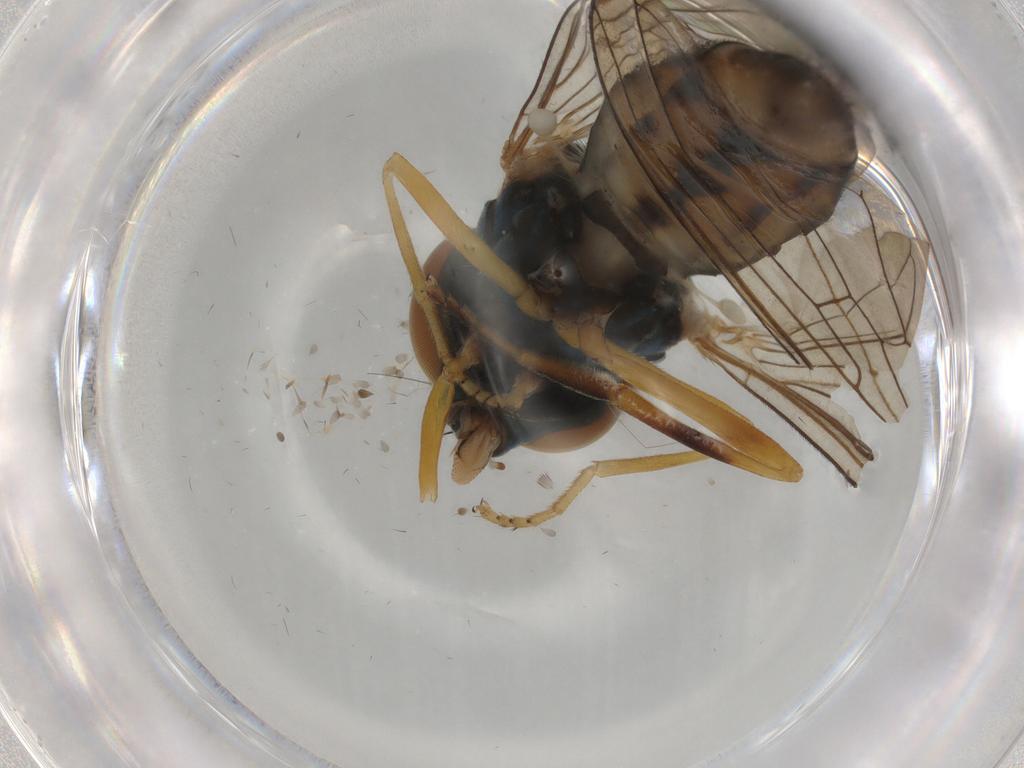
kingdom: Animalia
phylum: Arthropoda
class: Insecta
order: Diptera
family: Syrphidae
